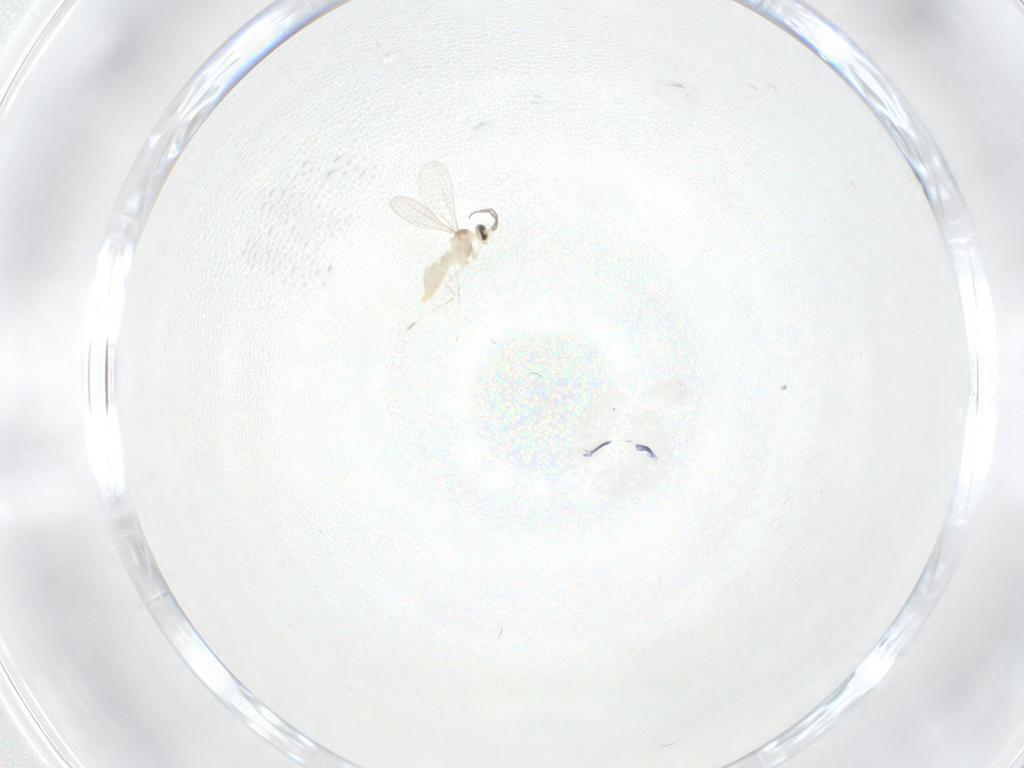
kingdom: Animalia
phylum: Arthropoda
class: Insecta
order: Diptera
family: Cecidomyiidae
